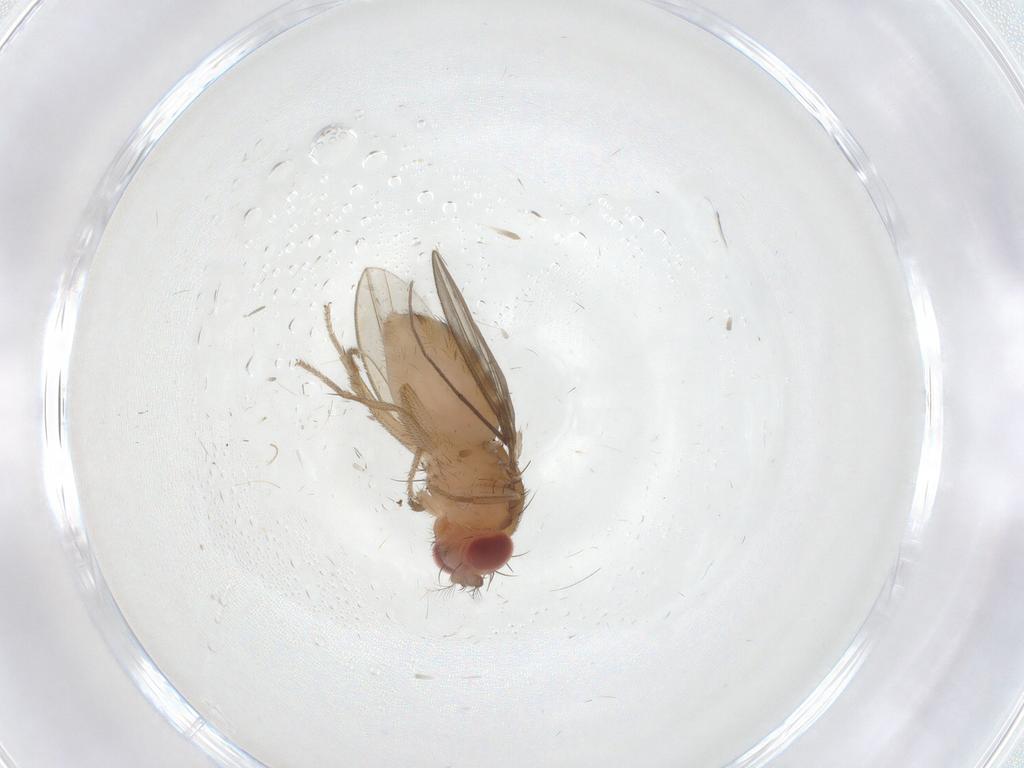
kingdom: Animalia
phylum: Arthropoda
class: Insecta
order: Diptera
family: Drosophilidae
